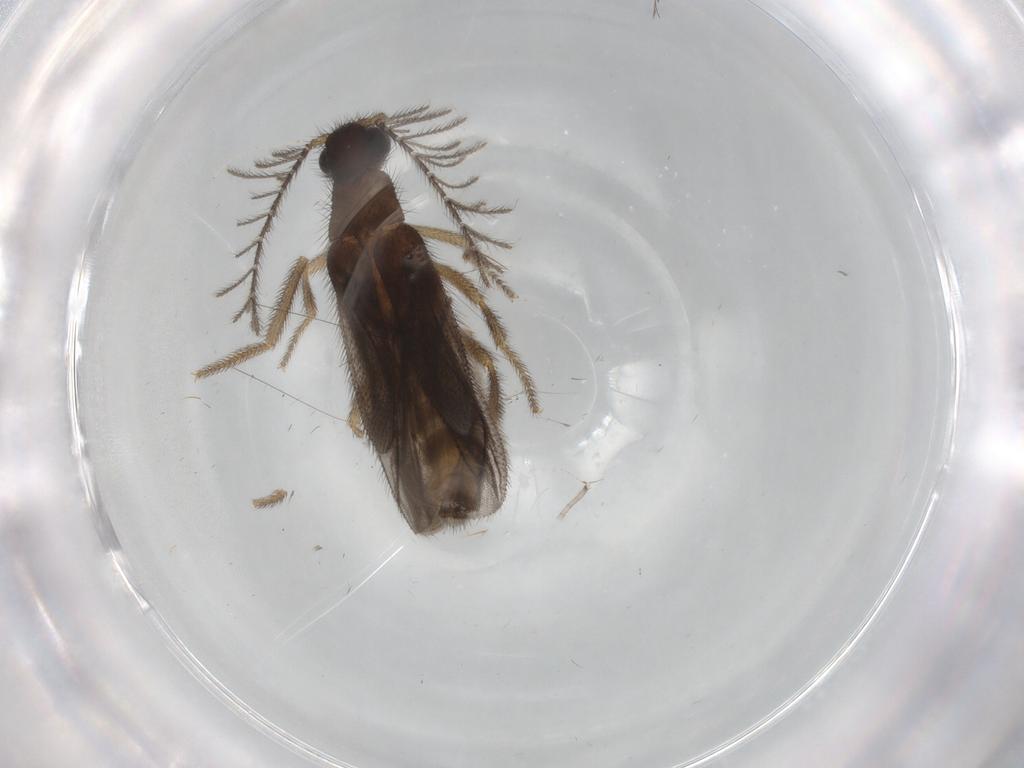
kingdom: Animalia
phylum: Arthropoda
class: Insecta
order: Coleoptera
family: Phengodidae
